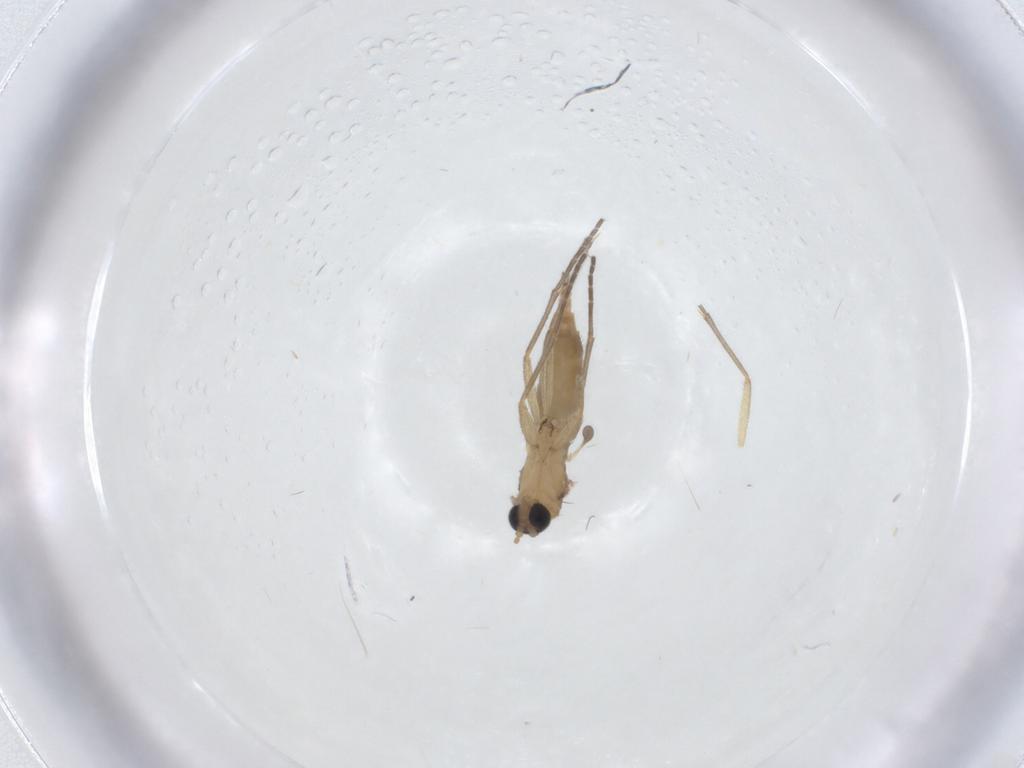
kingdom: Animalia
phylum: Arthropoda
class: Insecta
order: Diptera
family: Sciaridae
